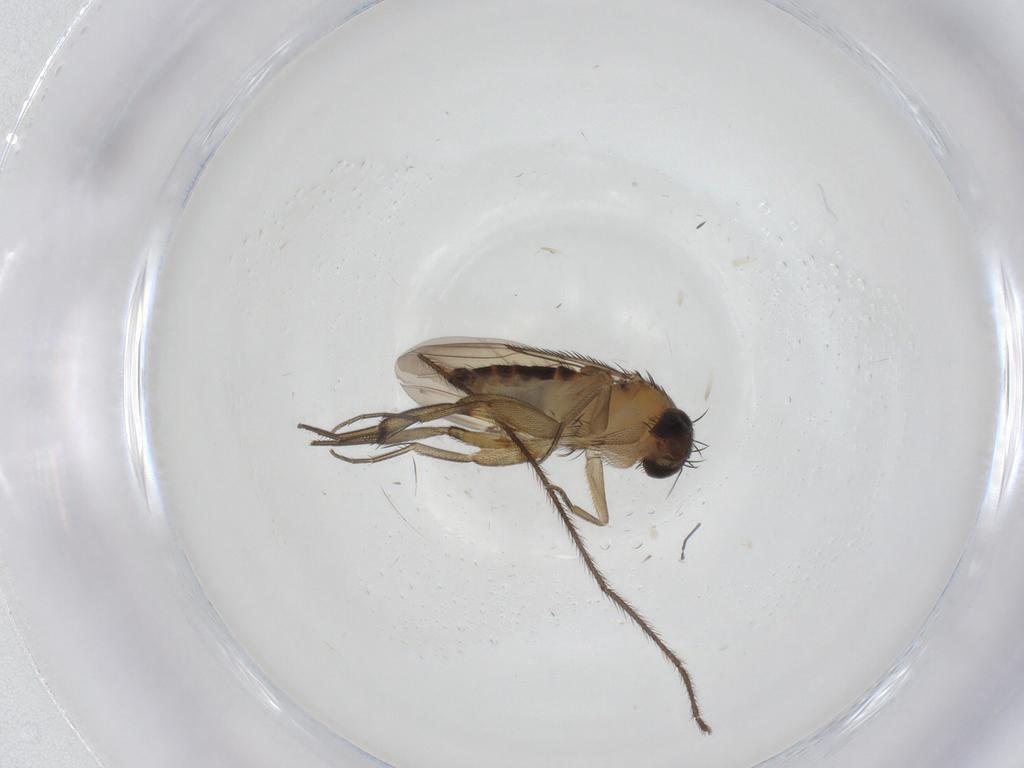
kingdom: Animalia
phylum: Arthropoda
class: Insecta
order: Diptera
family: Phoridae
